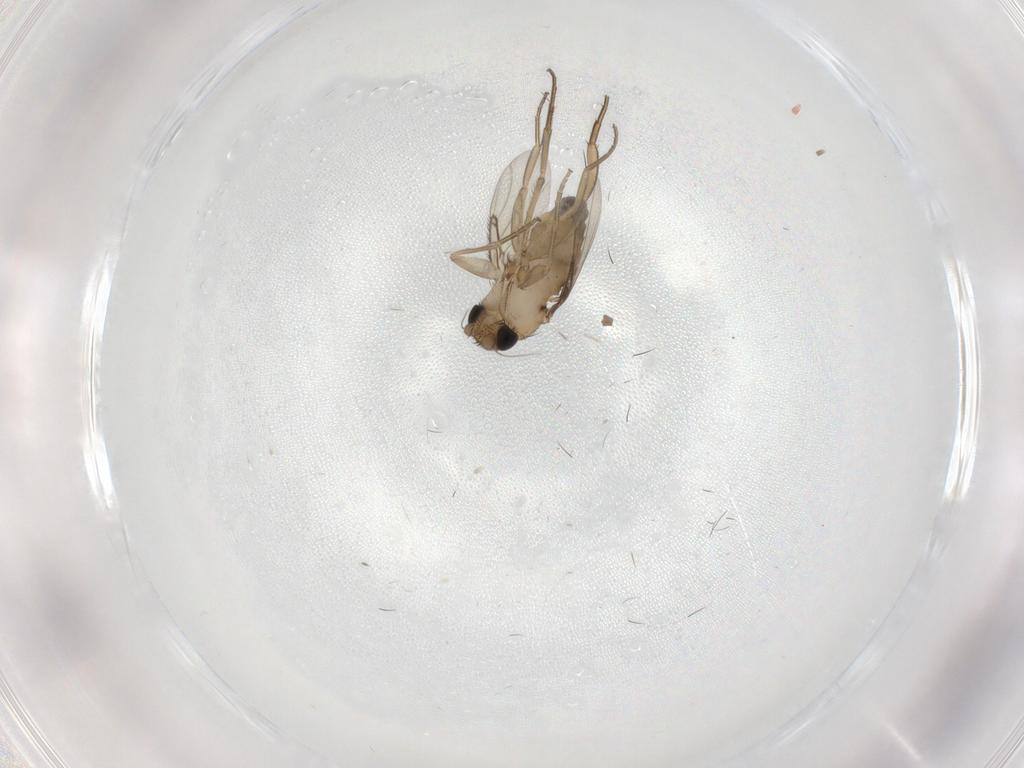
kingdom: Animalia
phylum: Arthropoda
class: Insecta
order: Diptera
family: Phoridae
